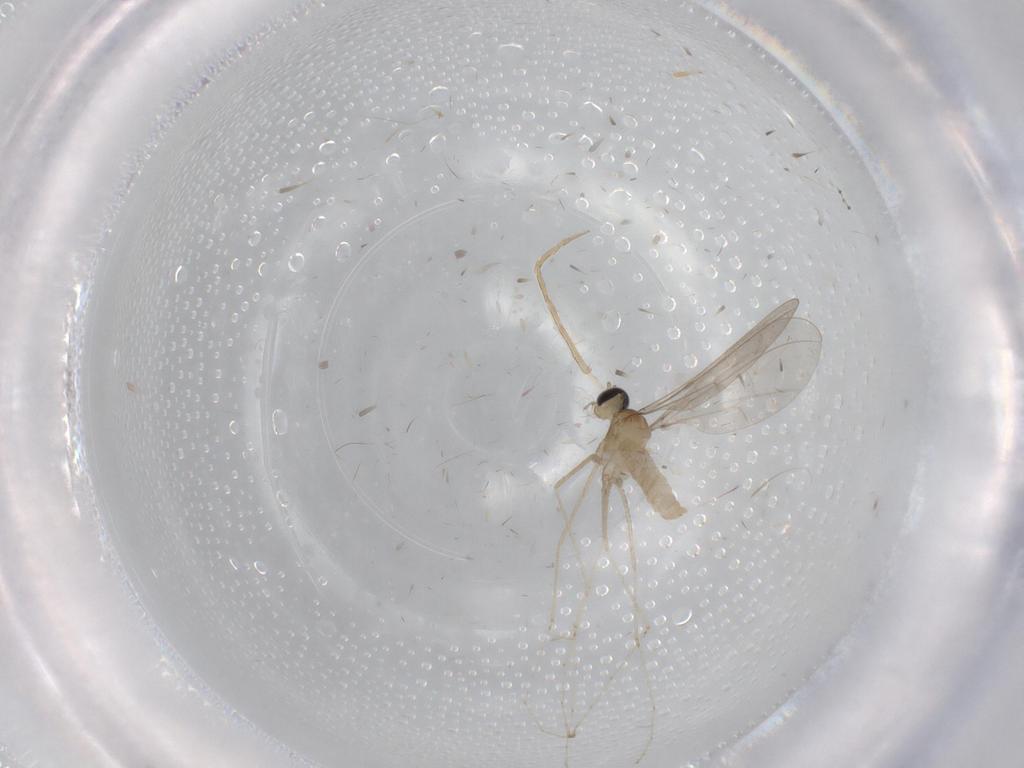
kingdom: Animalia
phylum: Arthropoda
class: Insecta
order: Diptera
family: Cecidomyiidae
